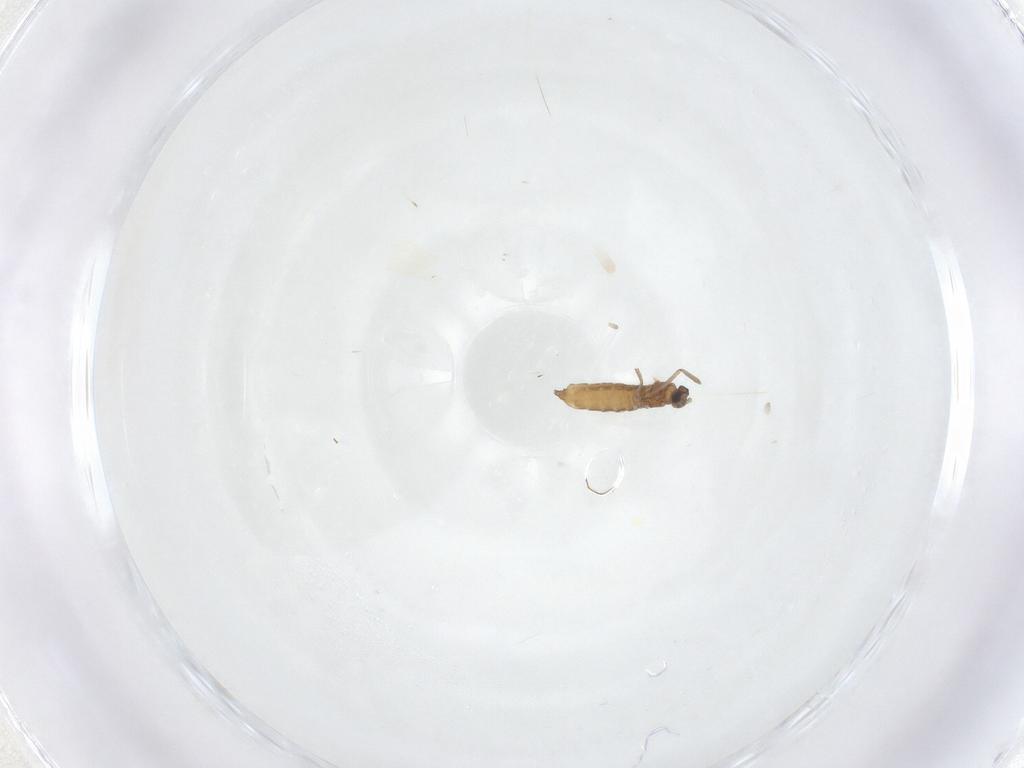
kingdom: Animalia
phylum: Arthropoda
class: Insecta
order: Diptera
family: Cecidomyiidae
